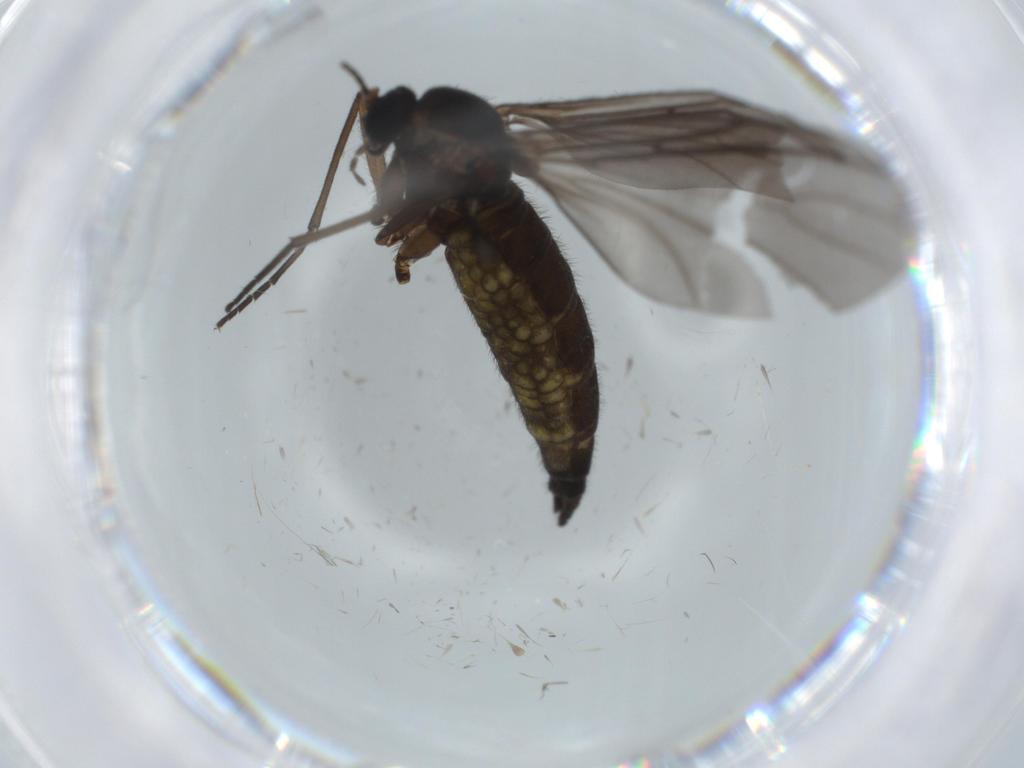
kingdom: Animalia
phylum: Arthropoda
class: Insecta
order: Diptera
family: Sciaridae
